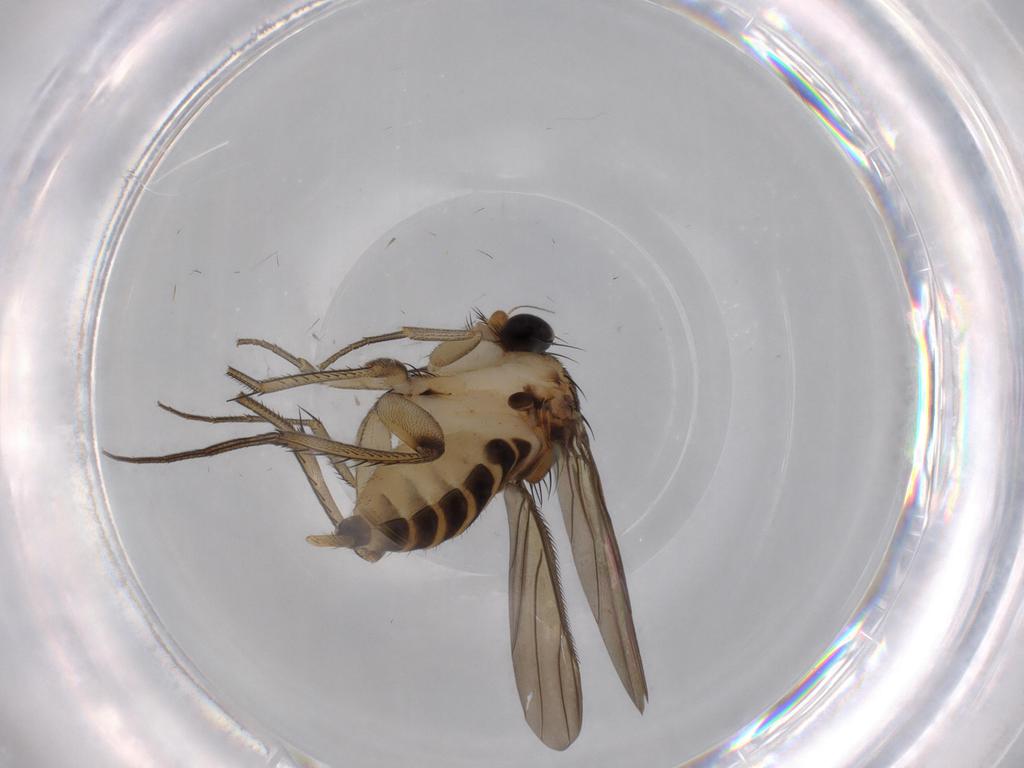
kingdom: Animalia
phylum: Arthropoda
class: Insecta
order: Diptera
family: Phoridae
